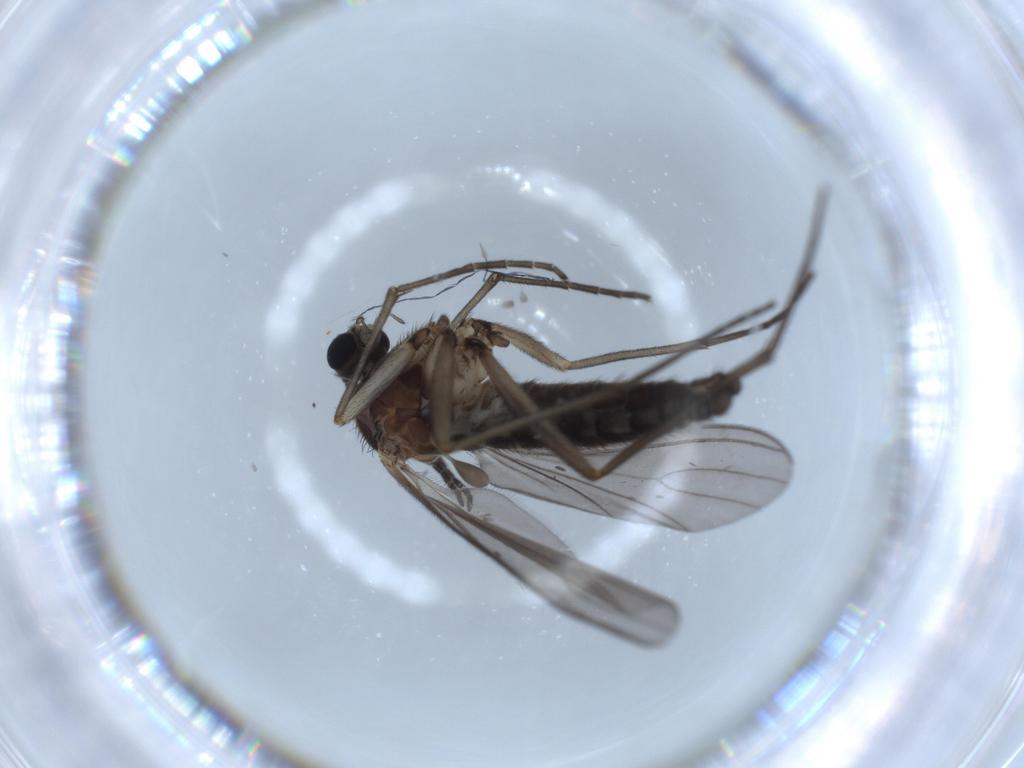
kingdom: Animalia
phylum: Arthropoda
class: Insecta
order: Diptera
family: Sciaridae
